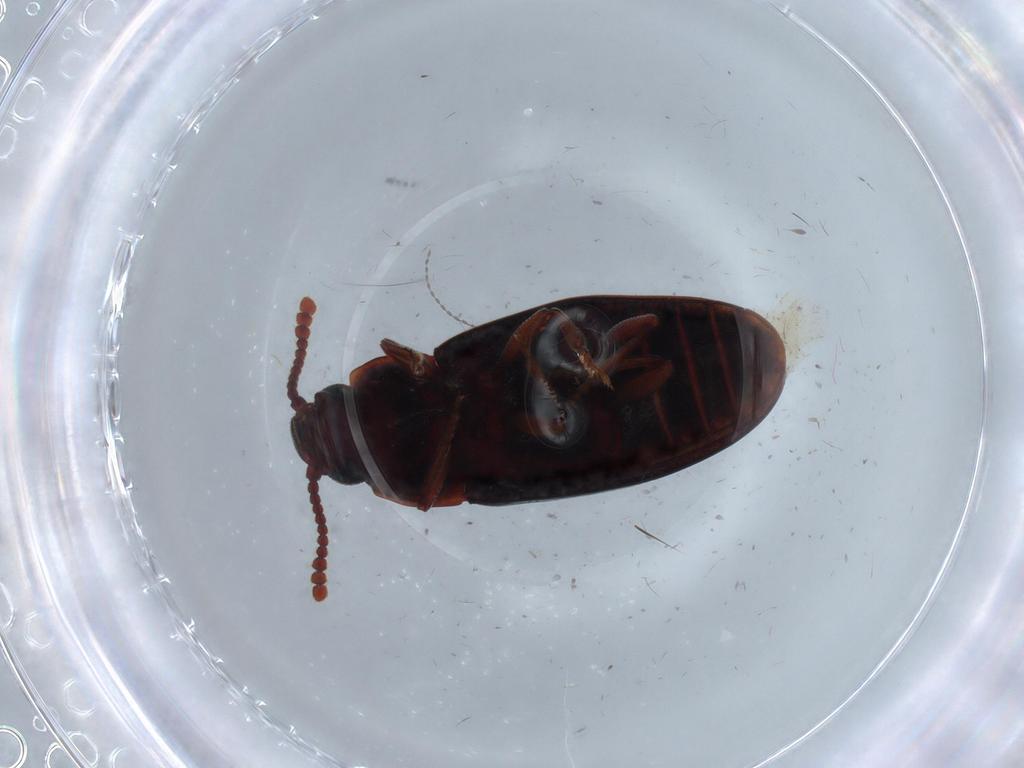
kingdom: Animalia
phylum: Arthropoda
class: Insecta
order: Coleoptera
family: Erotylidae
